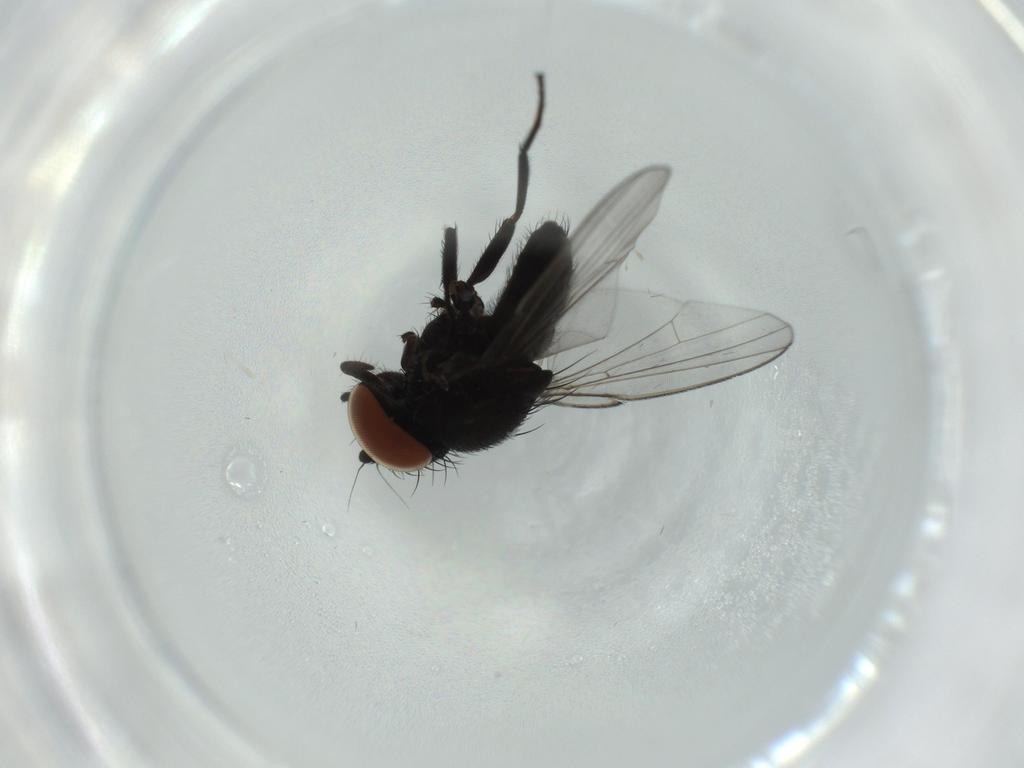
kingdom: Animalia
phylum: Arthropoda
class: Insecta
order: Diptera
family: Milichiidae
